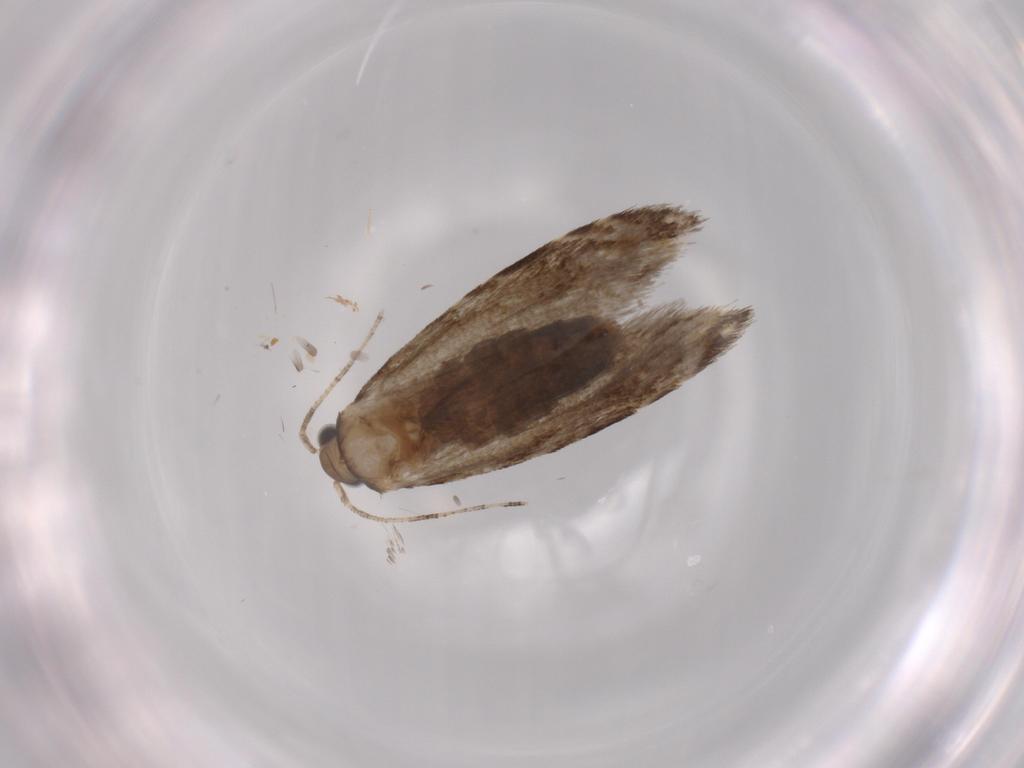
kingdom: Animalia
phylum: Arthropoda
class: Insecta
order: Lepidoptera
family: Tineidae
